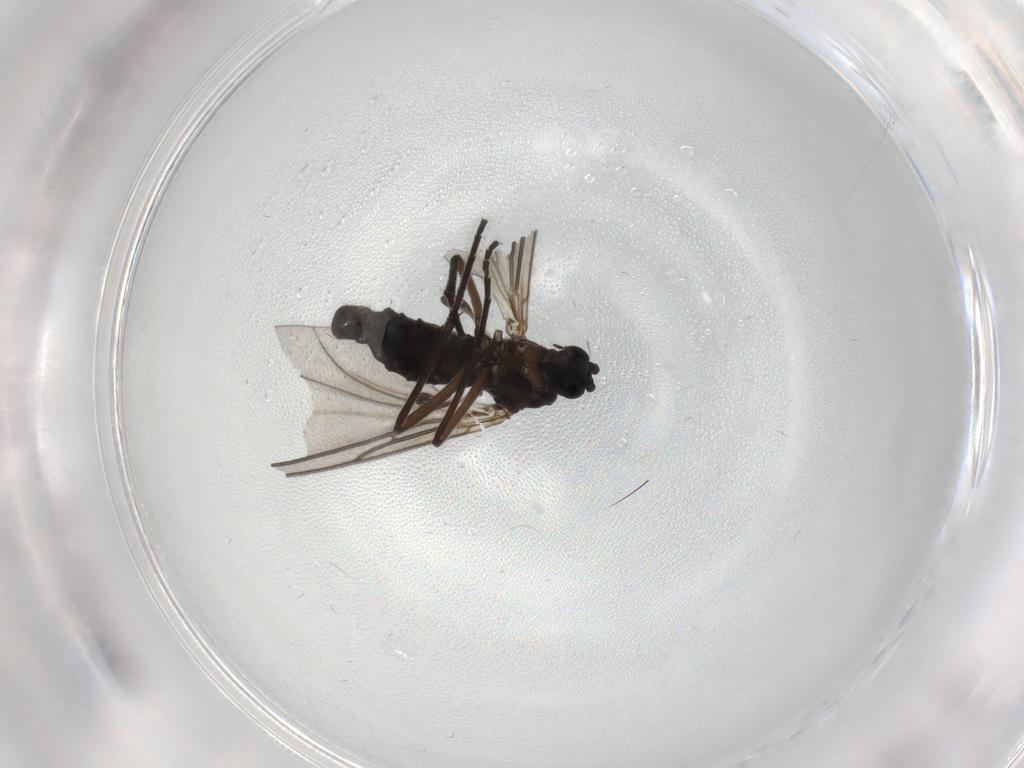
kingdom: Animalia
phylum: Arthropoda
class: Insecta
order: Diptera
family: Sciaridae
